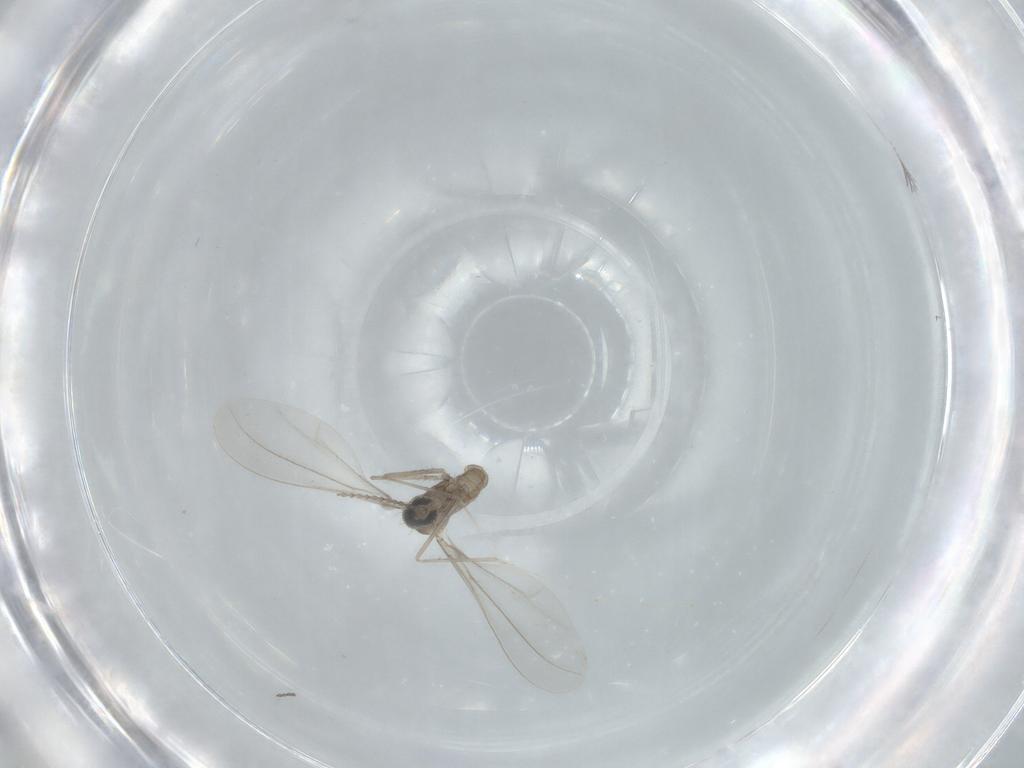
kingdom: Animalia
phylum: Arthropoda
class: Insecta
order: Diptera
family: Cecidomyiidae
